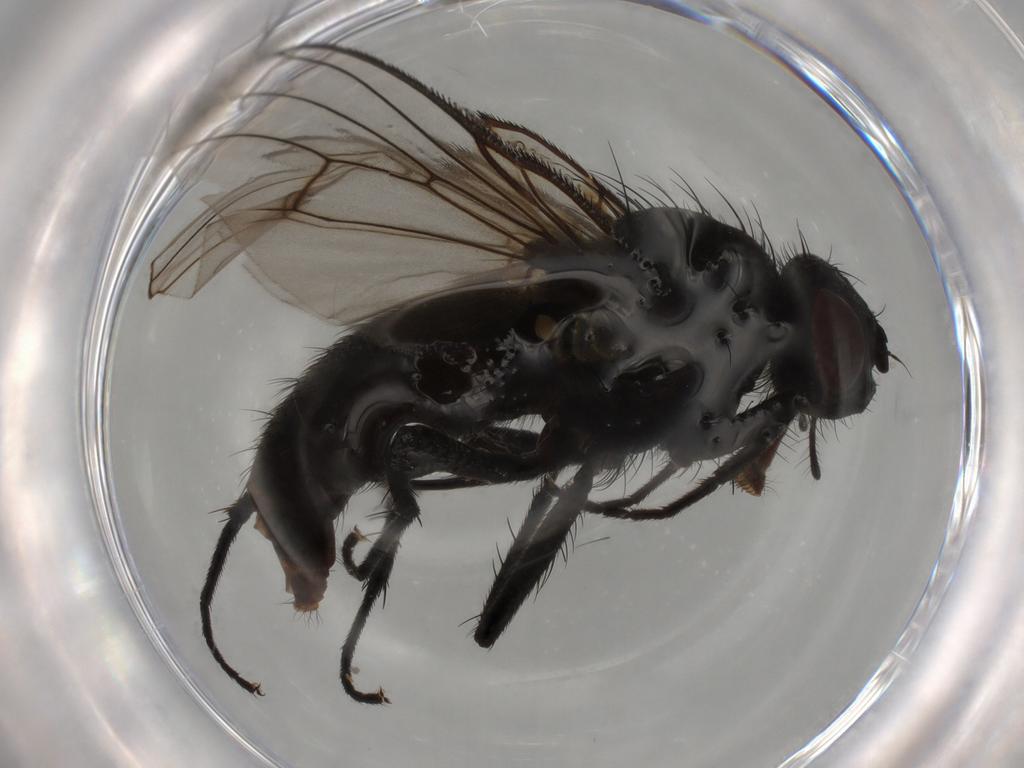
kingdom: Animalia
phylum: Arthropoda
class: Insecta
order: Diptera
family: Muscidae
